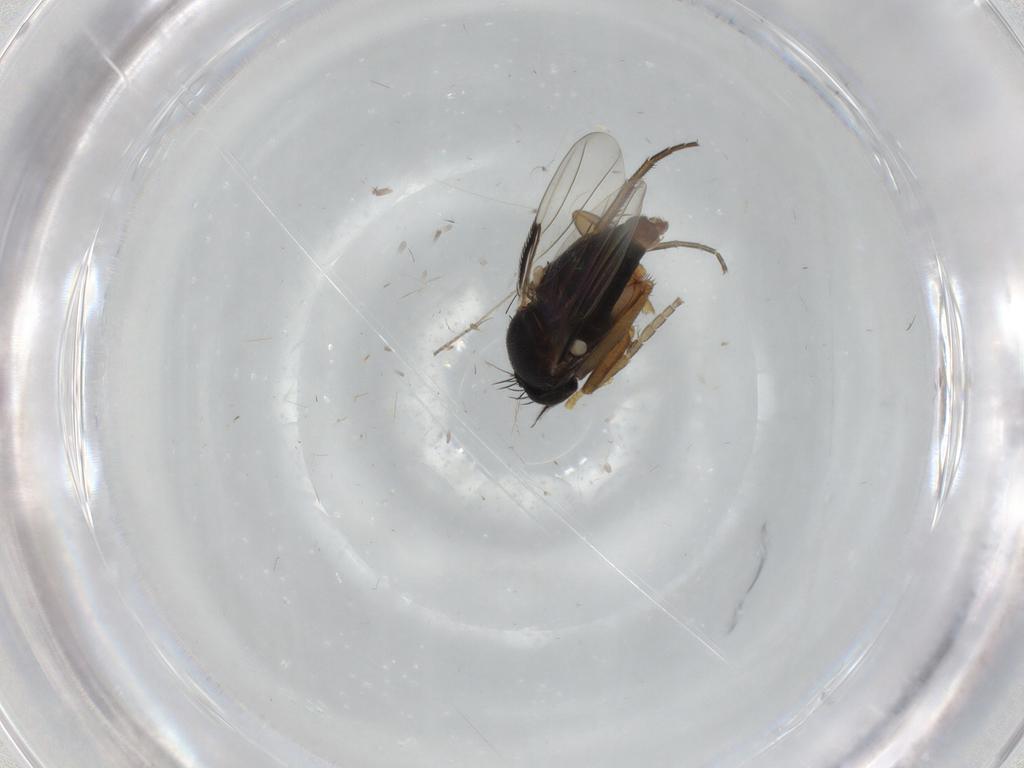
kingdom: Animalia
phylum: Arthropoda
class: Insecta
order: Diptera
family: Phoridae
